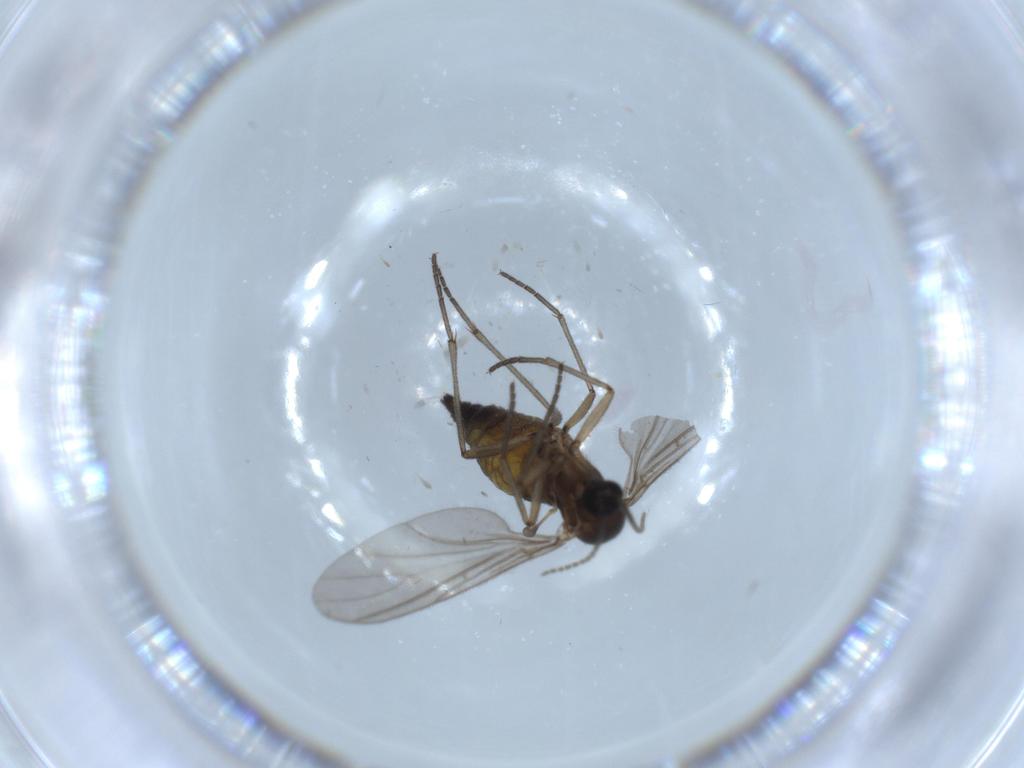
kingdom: Animalia
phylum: Arthropoda
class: Insecta
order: Diptera
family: Sciaridae
